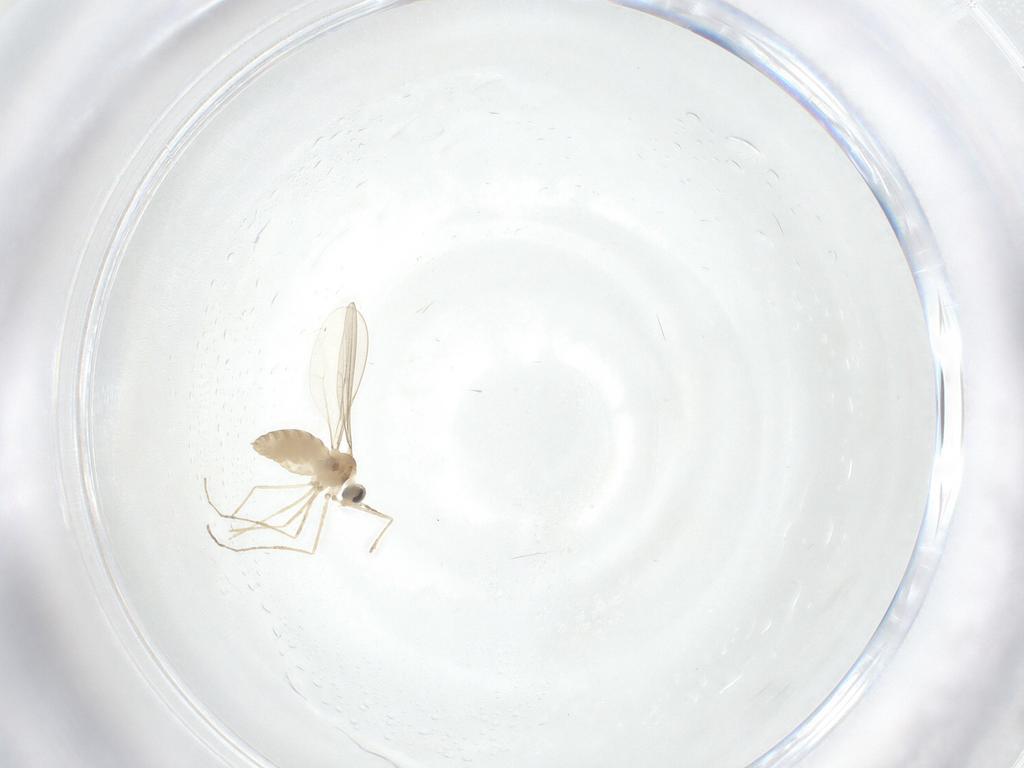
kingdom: Animalia
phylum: Arthropoda
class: Insecta
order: Diptera
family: Cecidomyiidae
